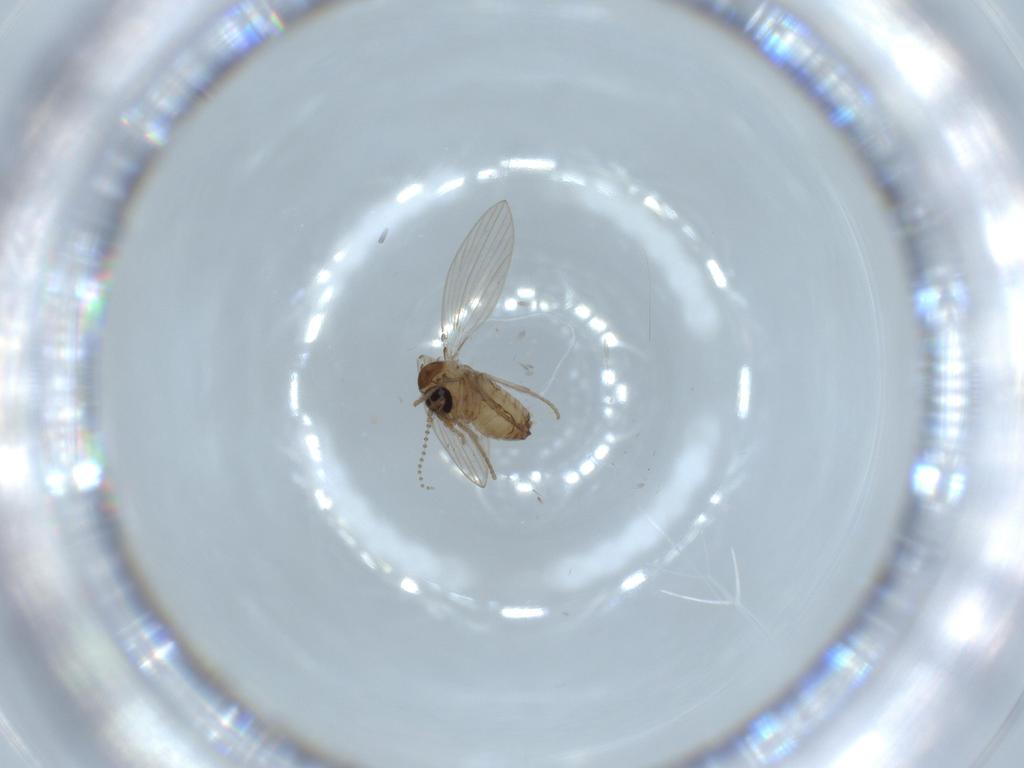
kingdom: Animalia
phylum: Arthropoda
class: Insecta
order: Diptera
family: Psychodidae
